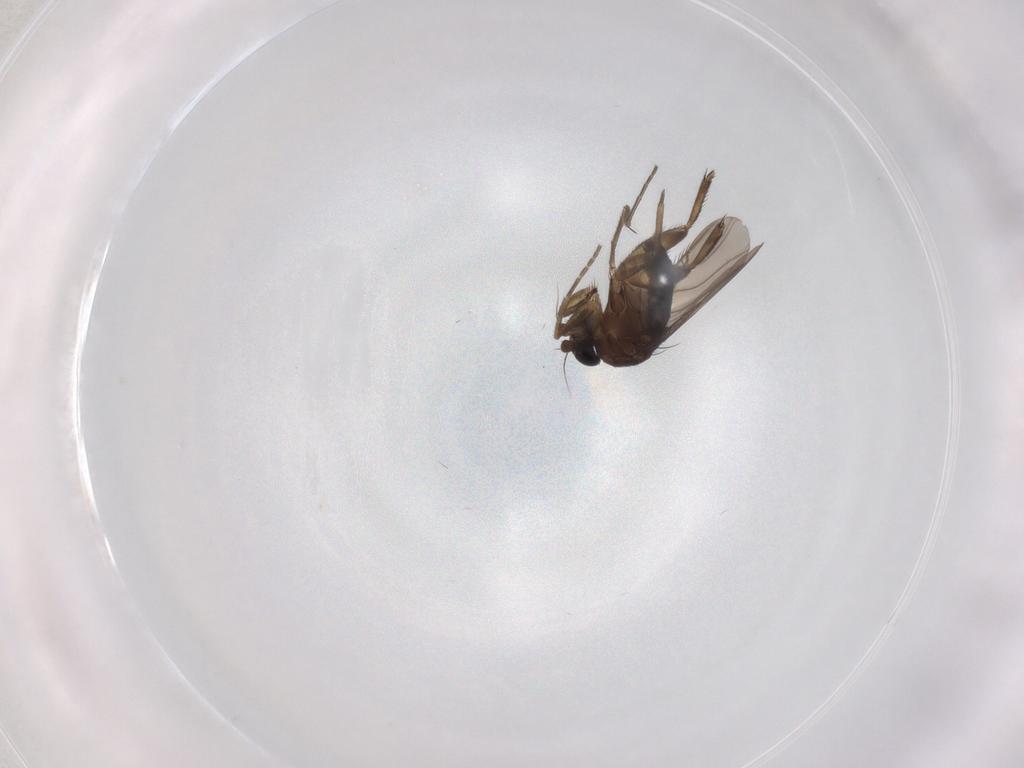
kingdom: Animalia
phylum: Arthropoda
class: Insecta
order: Diptera
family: Phoridae
